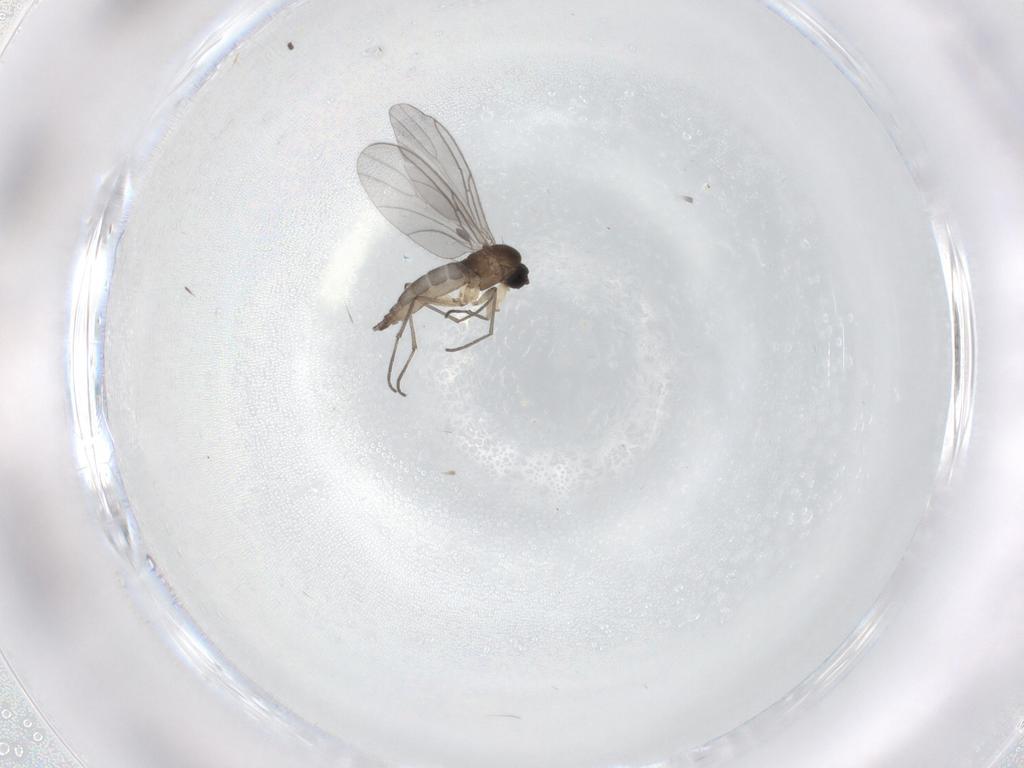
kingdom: Animalia
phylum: Arthropoda
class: Insecta
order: Diptera
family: Sciaridae
